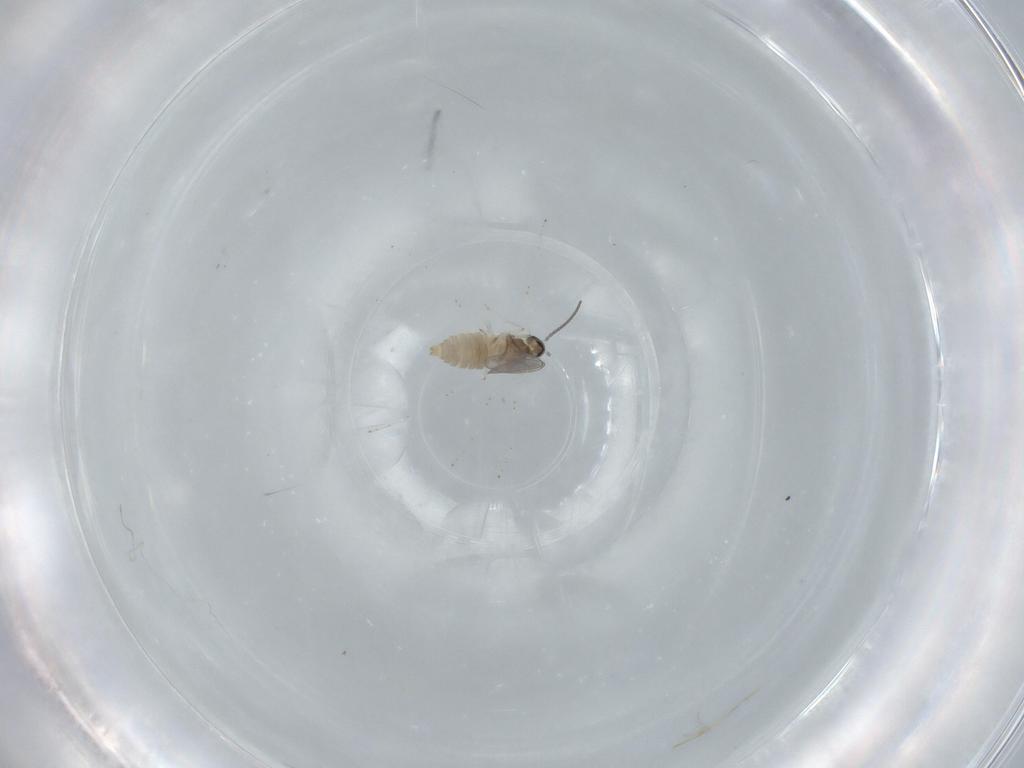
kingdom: Animalia
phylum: Arthropoda
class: Insecta
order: Diptera
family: Cecidomyiidae
